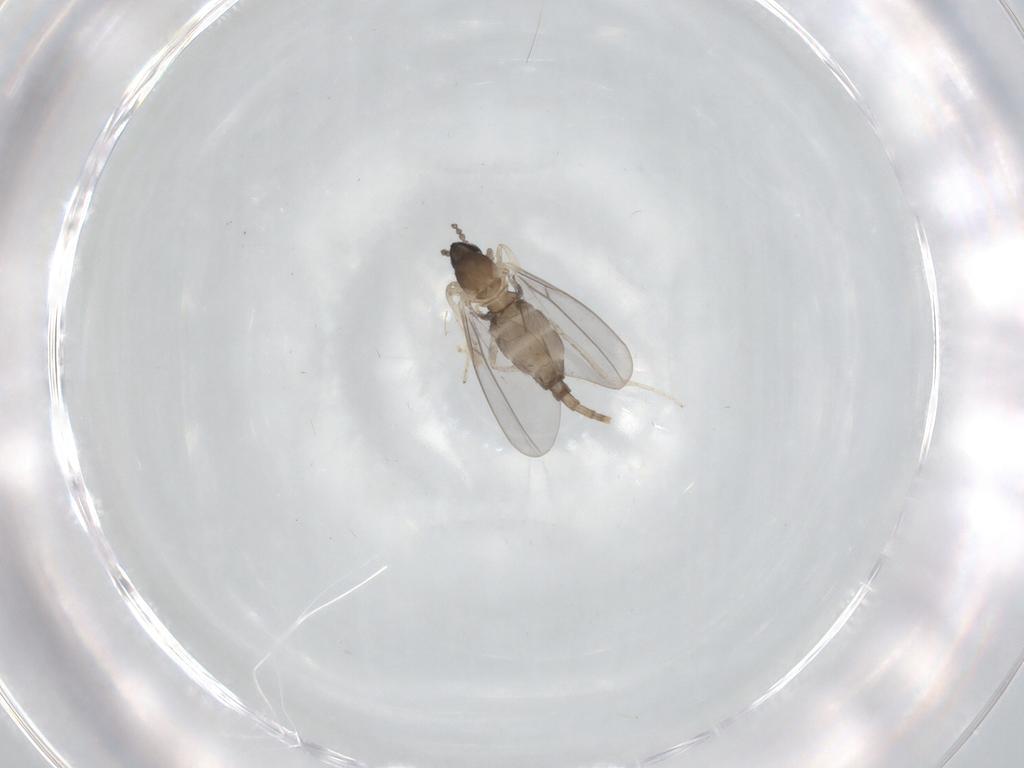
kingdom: Animalia
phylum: Arthropoda
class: Insecta
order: Diptera
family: Cecidomyiidae
